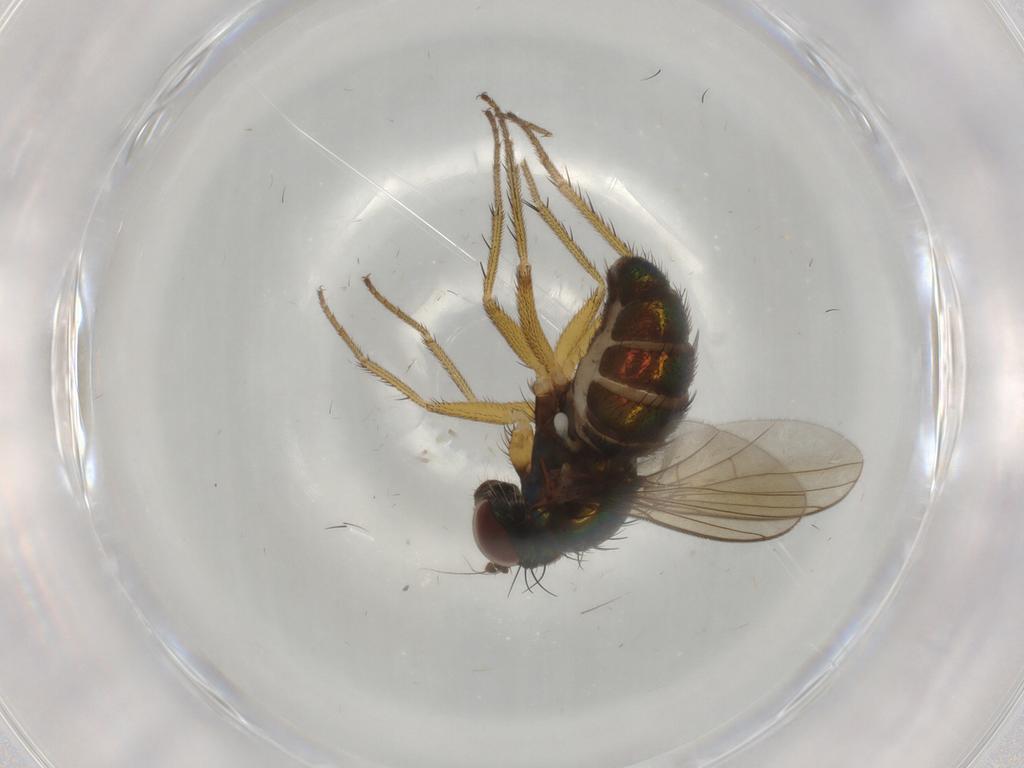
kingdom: Animalia
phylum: Arthropoda
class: Insecta
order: Diptera
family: Dolichopodidae
